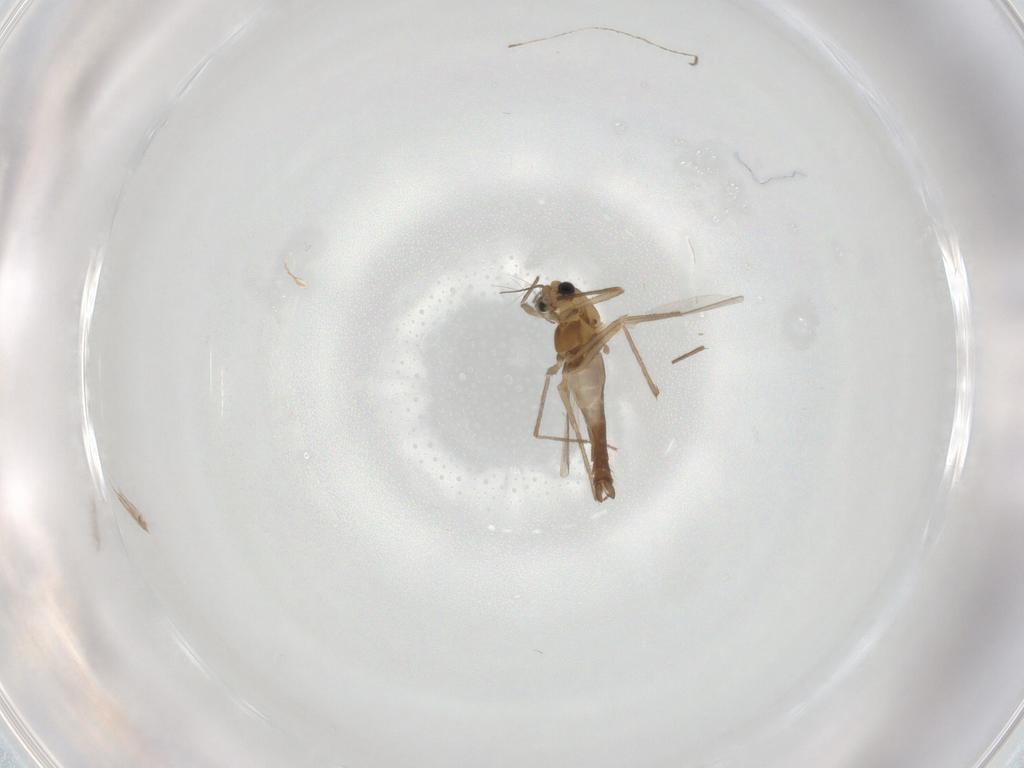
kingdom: Animalia
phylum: Arthropoda
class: Insecta
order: Diptera
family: Chironomidae
